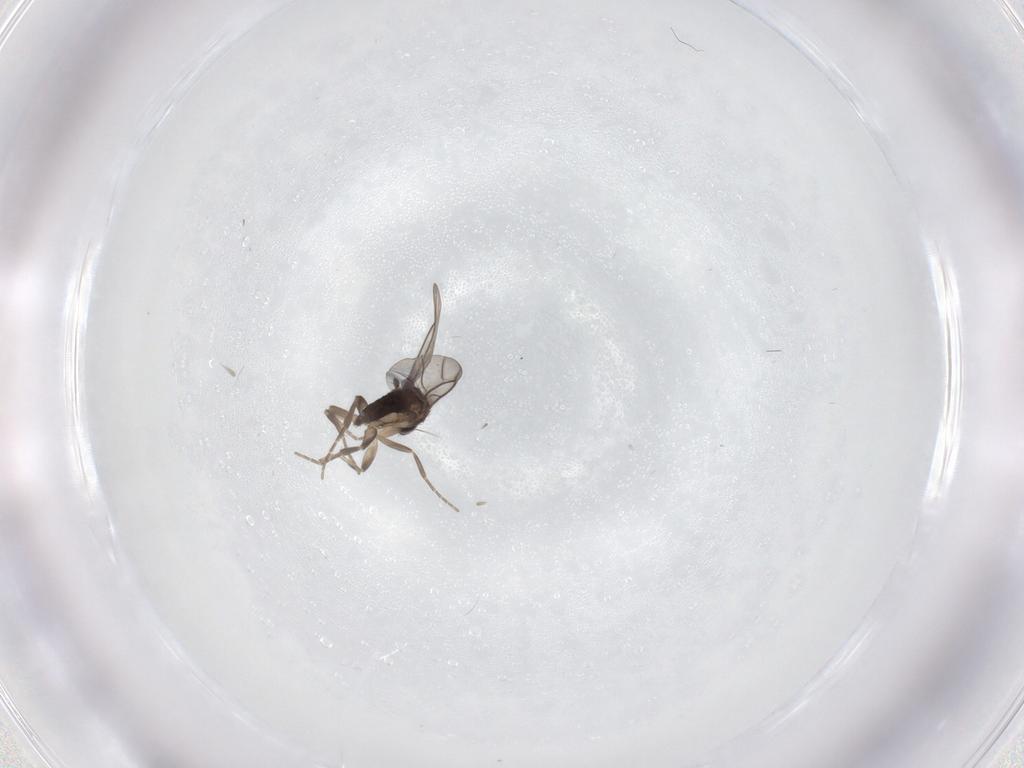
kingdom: Animalia
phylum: Arthropoda
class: Insecta
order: Diptera
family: Phoridae
